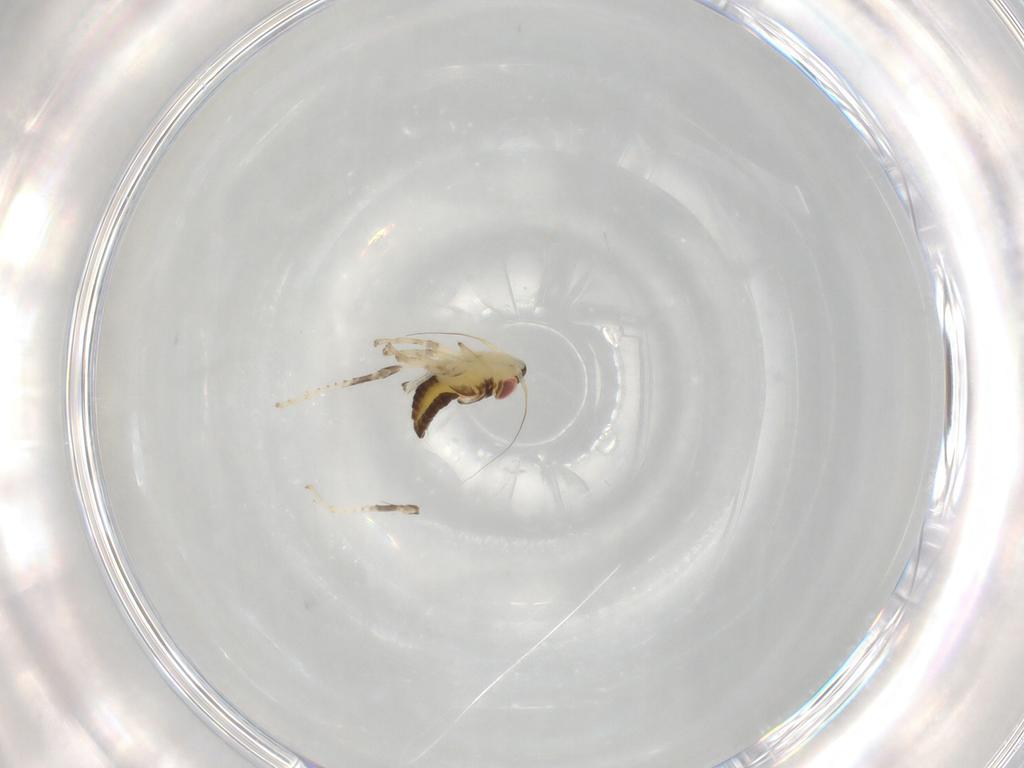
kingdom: Animalia
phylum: Arthropoda
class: Insecta
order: Hemiptera
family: Cicadellidae
